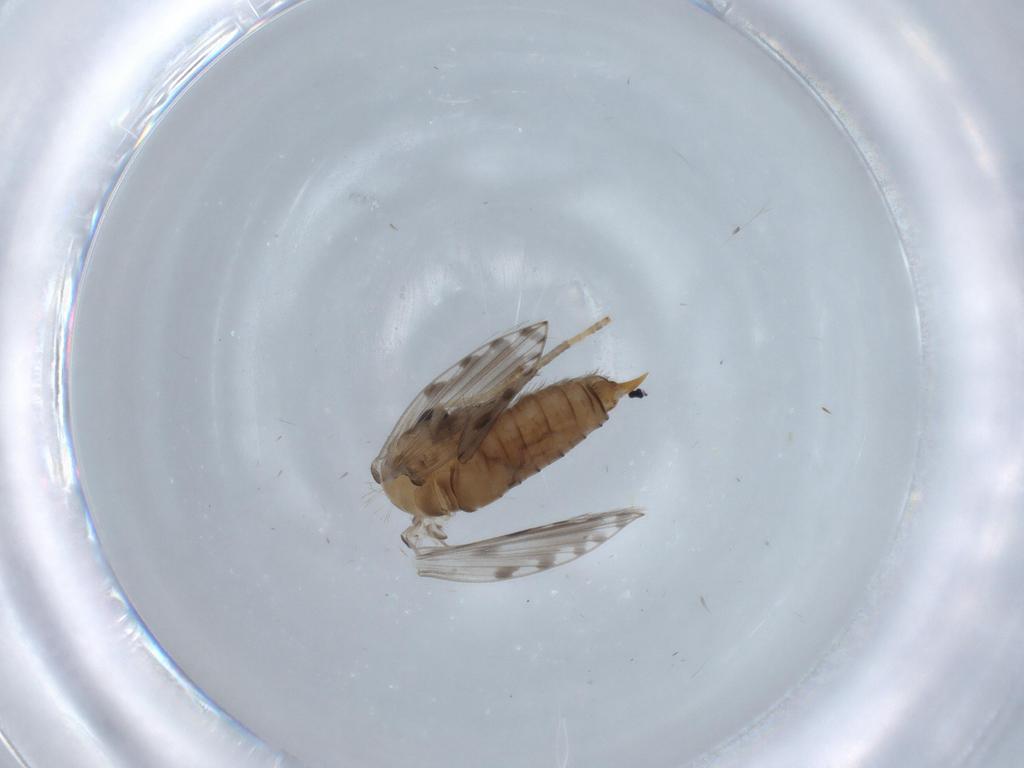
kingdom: Animalia
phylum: Arthropoda
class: Insecta
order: Diptera
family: Psychodidae
